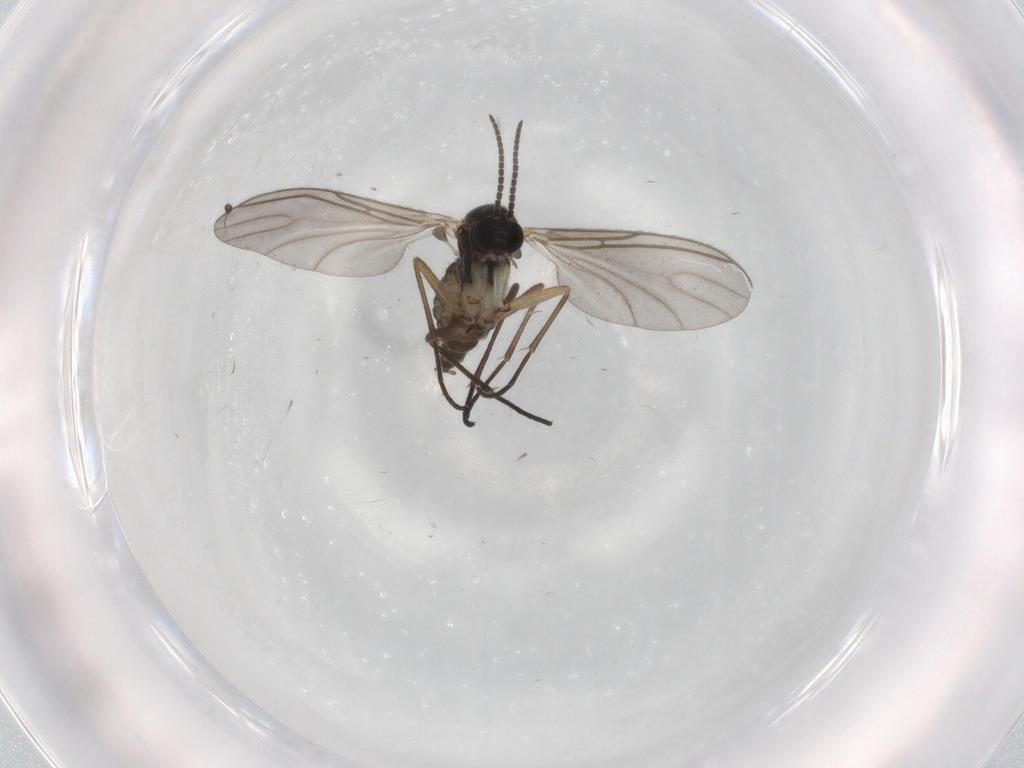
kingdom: Animalia
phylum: Arthropoda
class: Insecta
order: Diptera
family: Sciaridae
